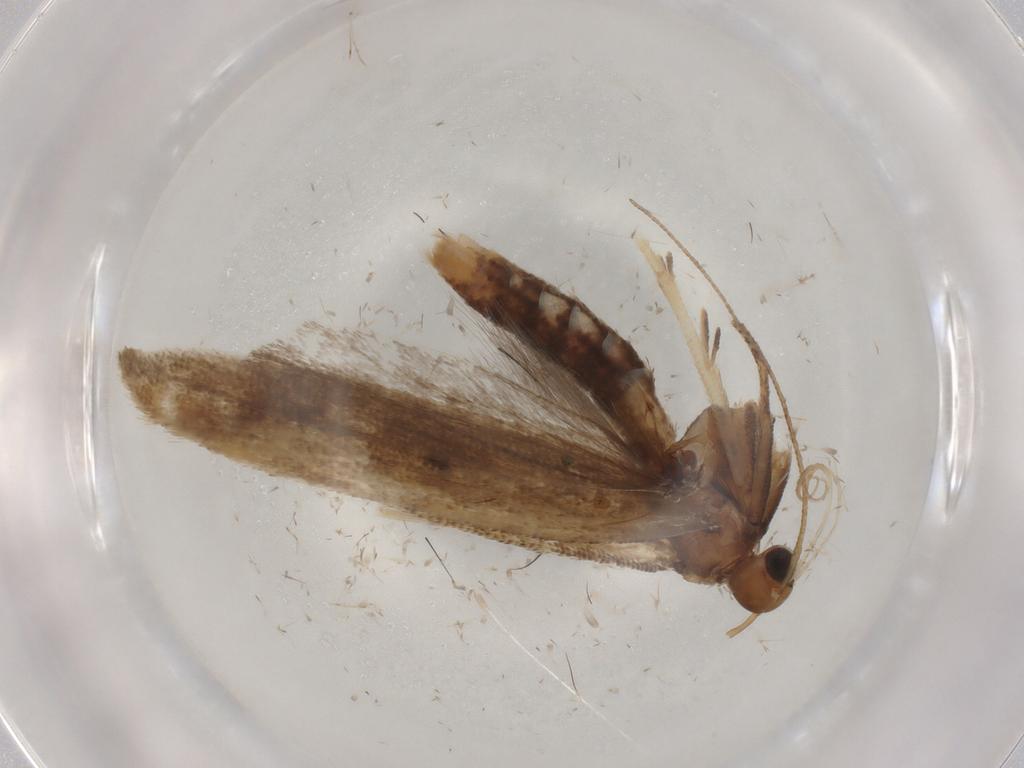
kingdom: Animalia
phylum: Arthropoda
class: Insecta
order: Lepidoptera
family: Gelechiidae
